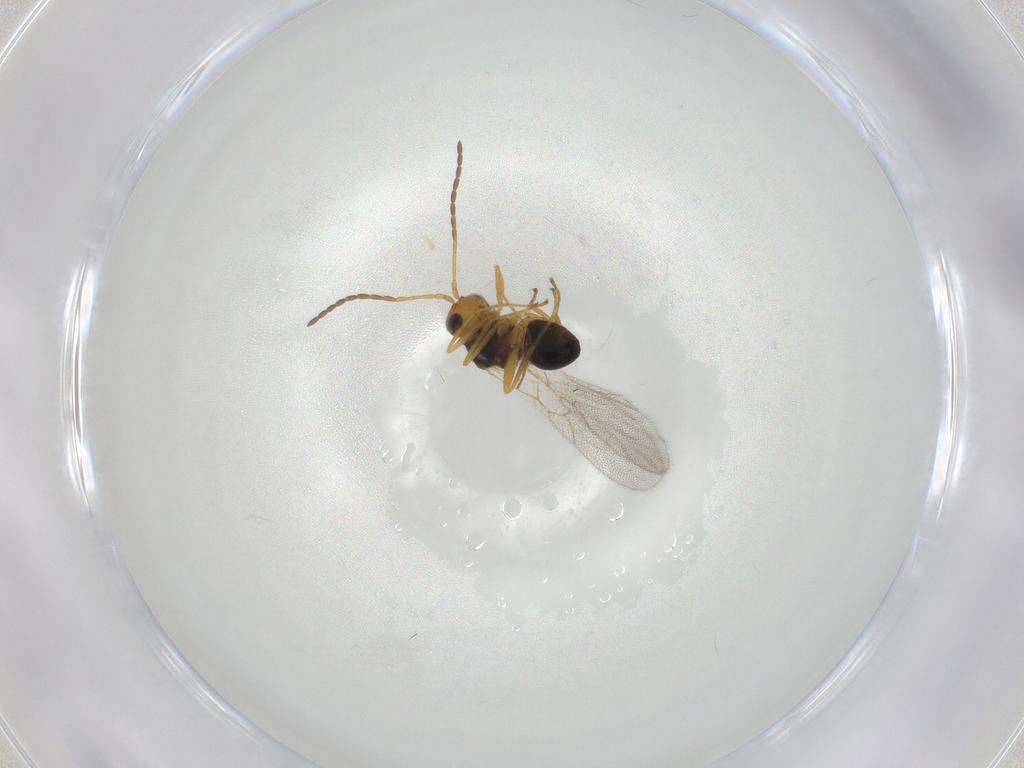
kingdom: Animalia
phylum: Arthropoda
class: Insecta
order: Hymenoptera
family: Figitidae
